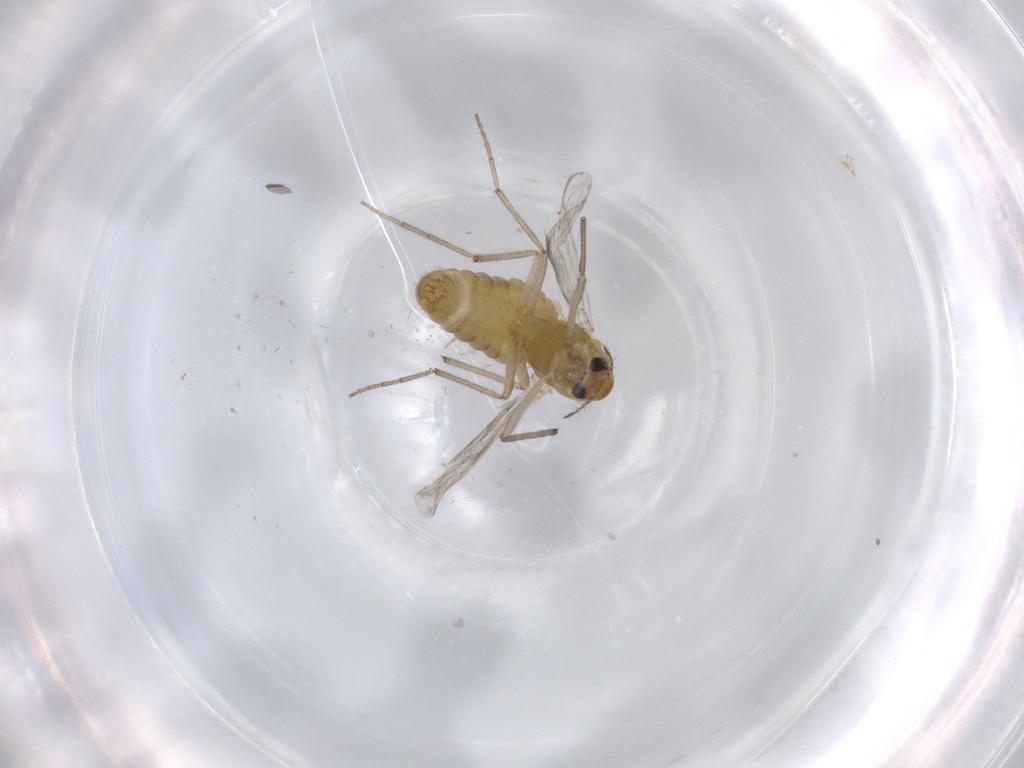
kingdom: Animalia
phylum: Arthropoda
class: Insecta
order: Diptera
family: Chironomidae
